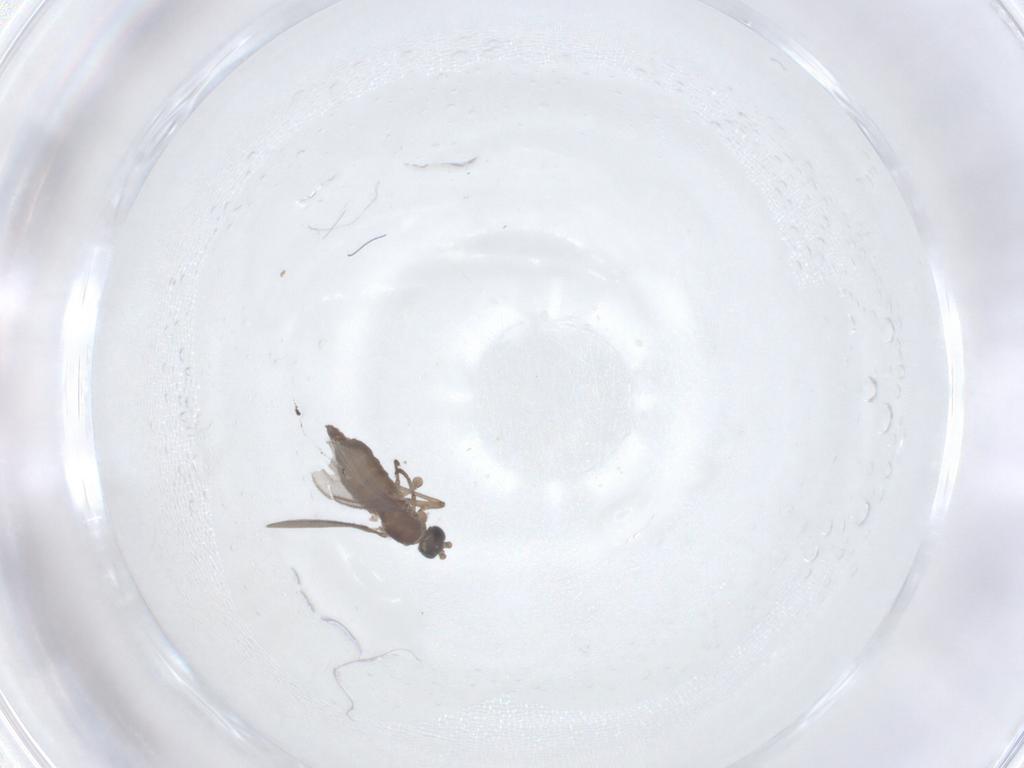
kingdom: Animalia
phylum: Arthropoda
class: Insecta
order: Diptera
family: Sciaridae
